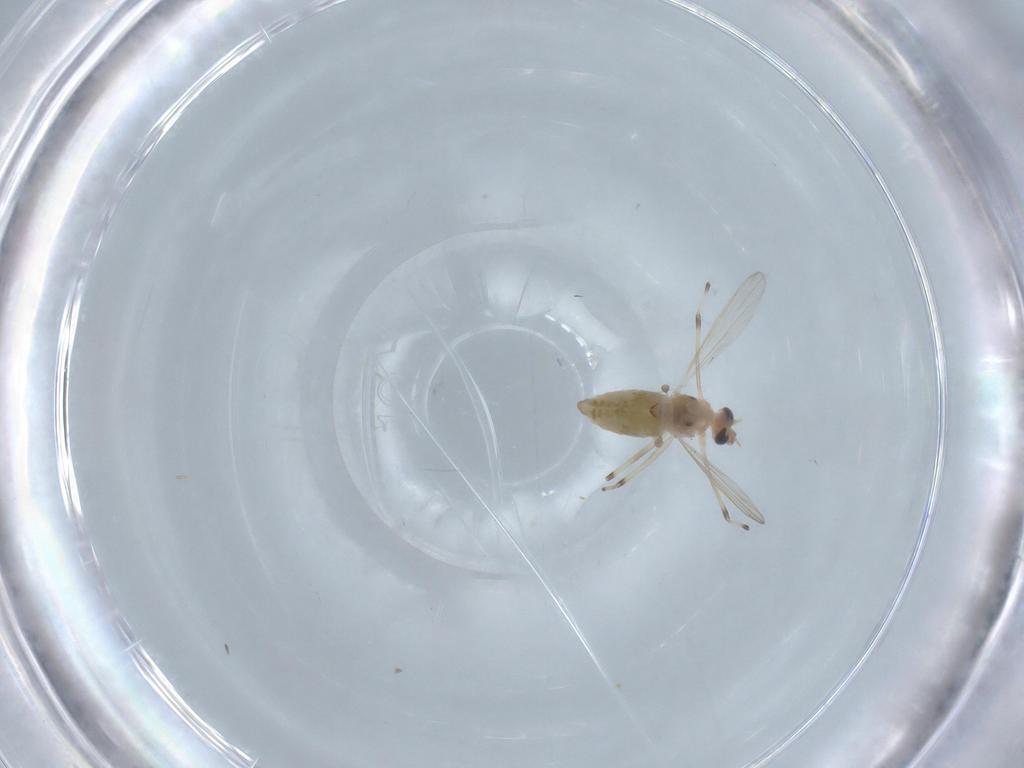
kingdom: Animalia
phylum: Arthropoda
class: Insecta
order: Diptera
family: Chironomidae
